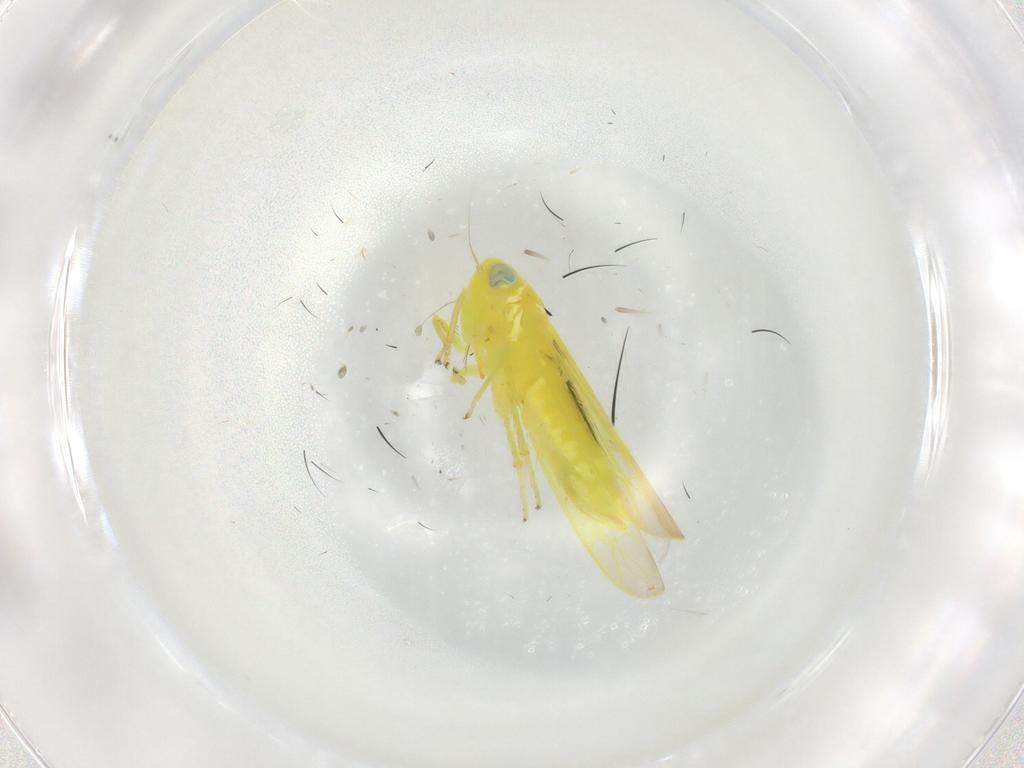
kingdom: Animalia
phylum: Arthropoda
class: Insecta
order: Hemiptera
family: Cicadellidae
